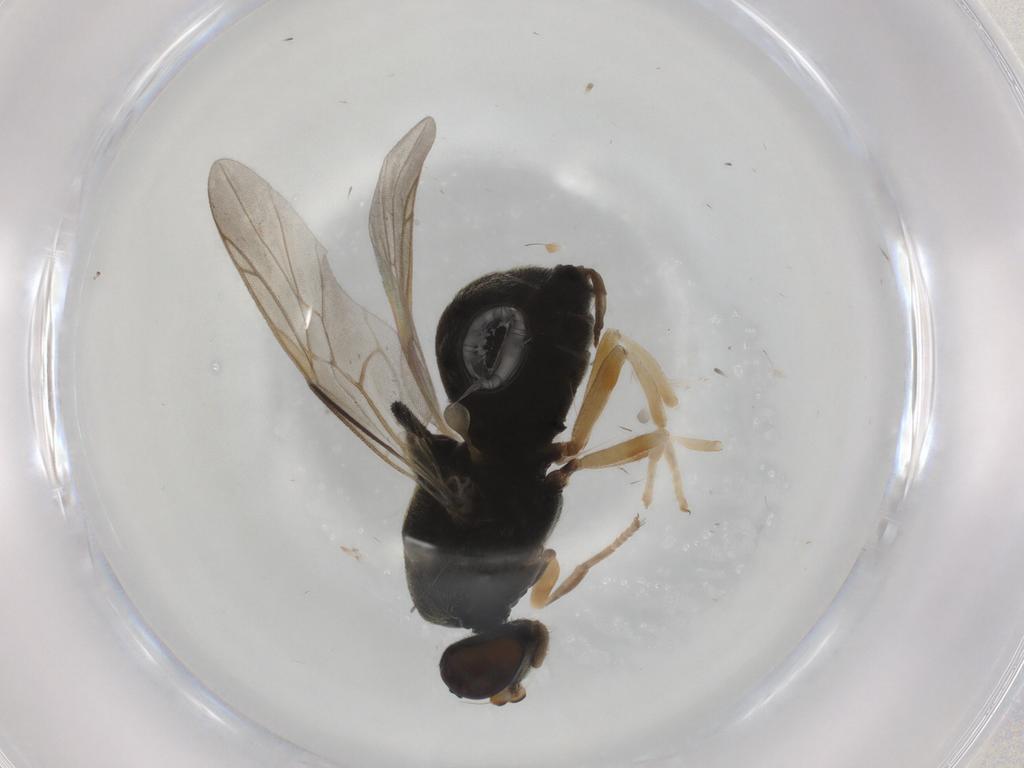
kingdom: Animalia
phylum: Arthropoda
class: Insecta
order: Diptera
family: Stratiomyidae
